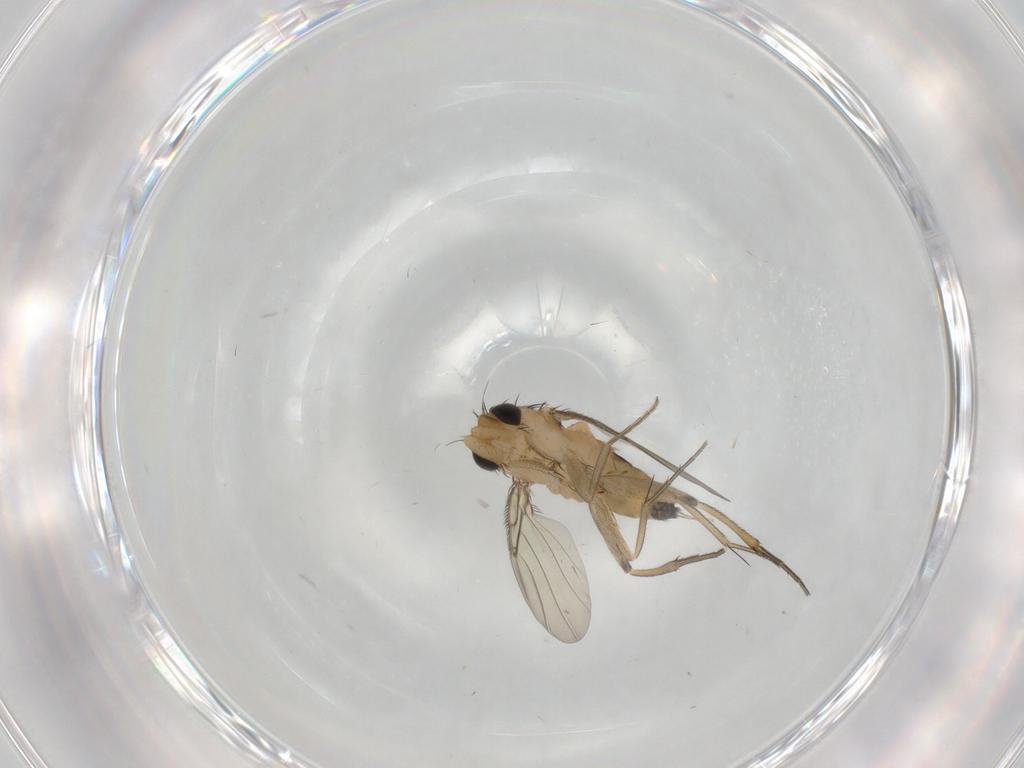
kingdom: Animalia
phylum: Arthropoda
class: Insecta
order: Diptera
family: Phoridae
